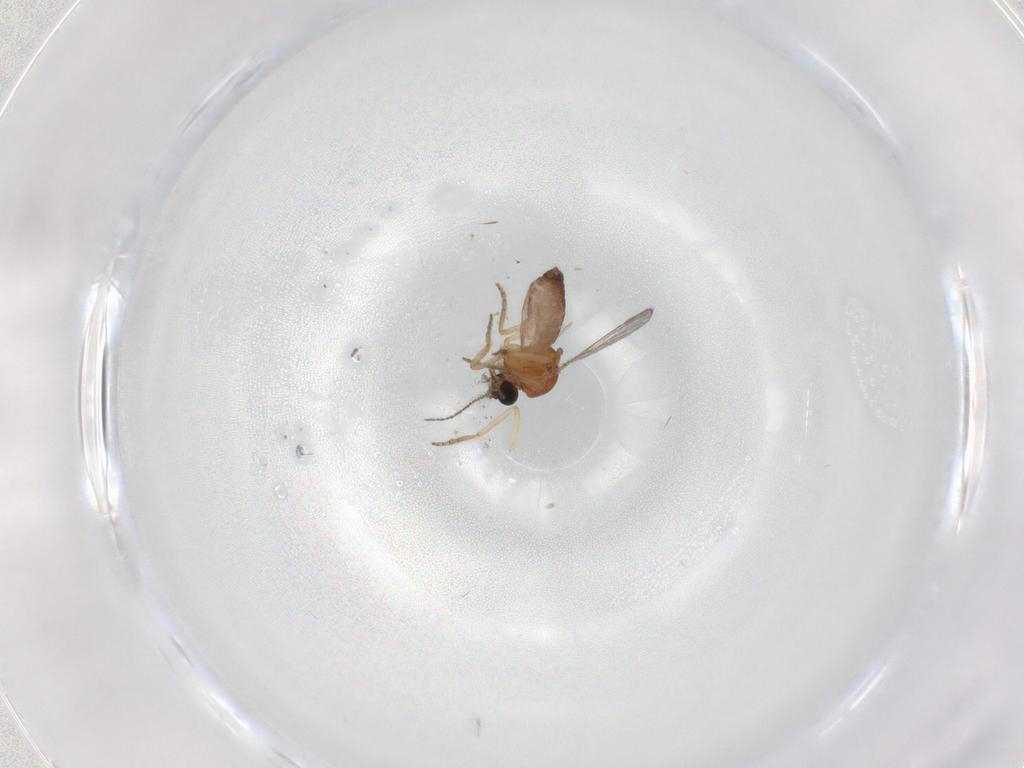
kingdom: Animalia
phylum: Arthropoda
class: Insecta
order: Diptera
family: Ceratopogonidae
